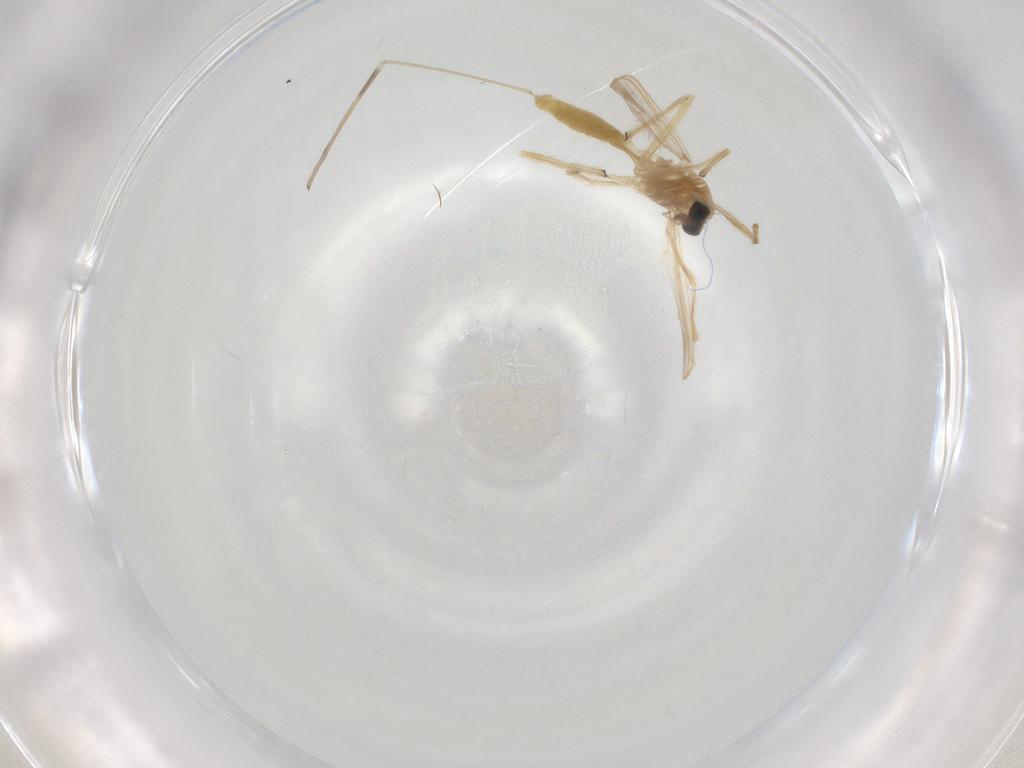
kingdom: Animalia
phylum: Arthropoda
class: Insecta
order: Diptera
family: Chironomidae
